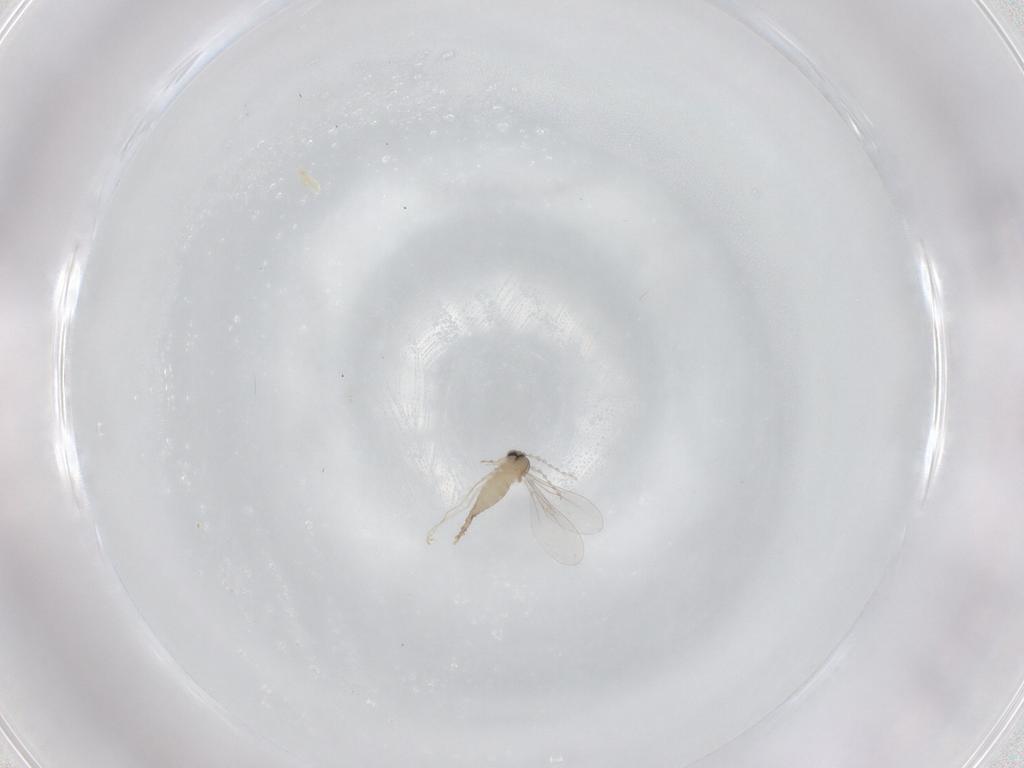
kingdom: Animalia
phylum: Arthropoda
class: Insecta
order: Diptera
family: Cecidomyiidae
